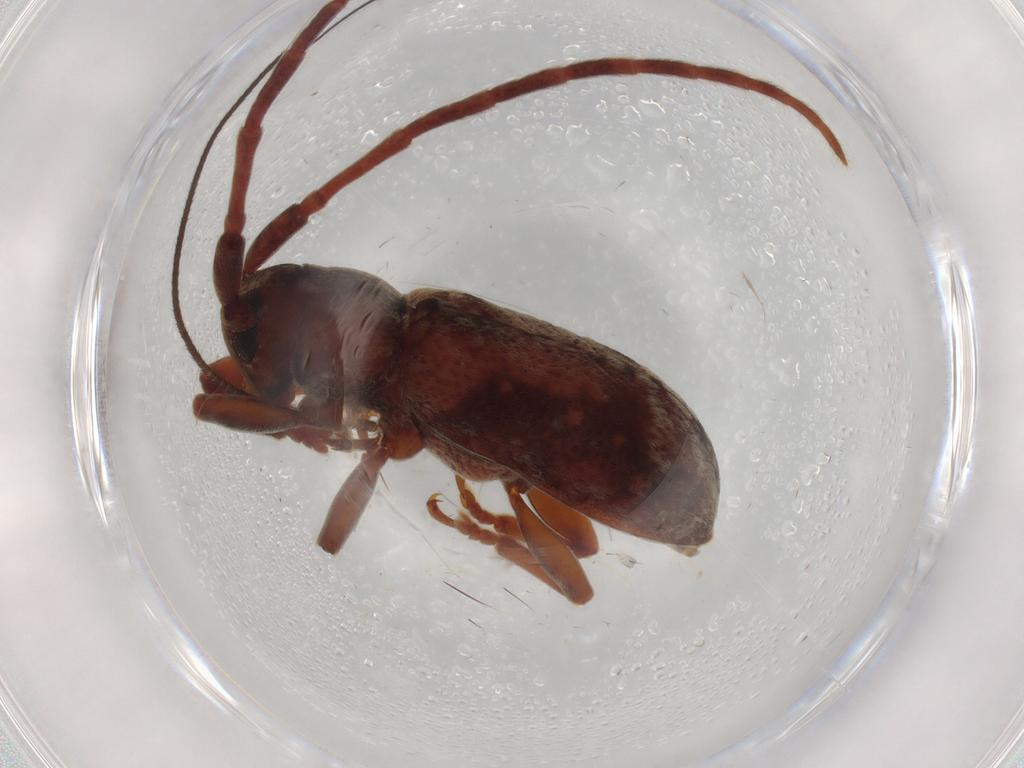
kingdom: Animalia
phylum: Arthropoda
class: Insecta
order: Coleoptera
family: Cerambycidae
